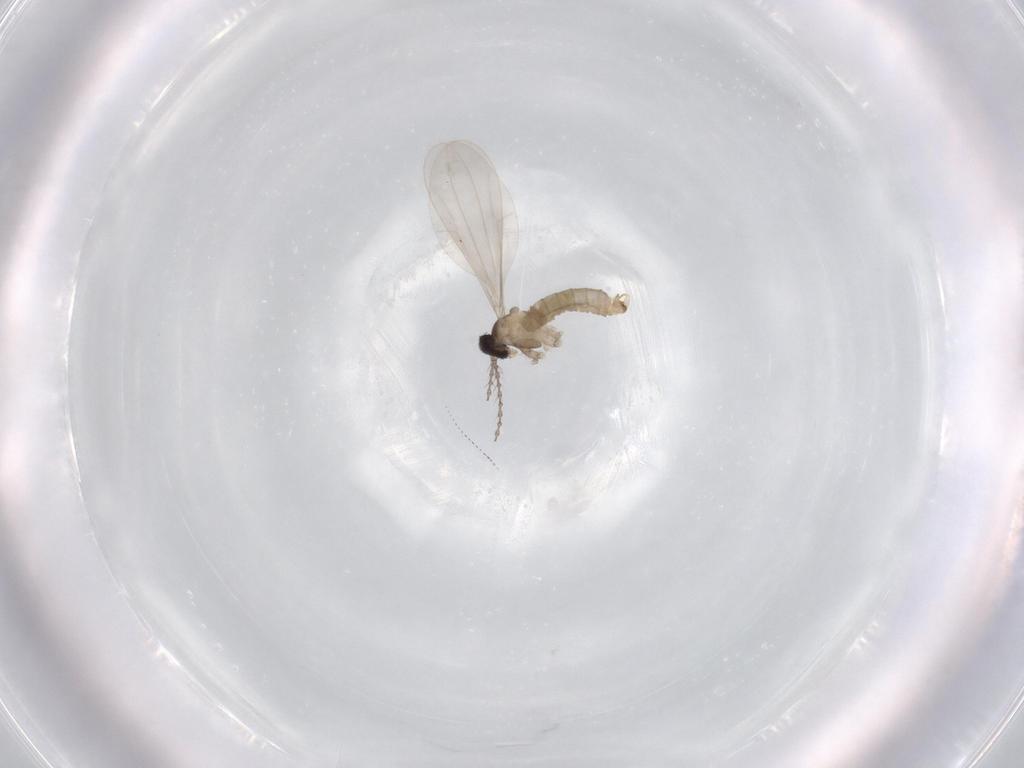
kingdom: Animalia
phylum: Arthropoda
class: Insecta
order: Diptera
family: Cecidomyiidae
